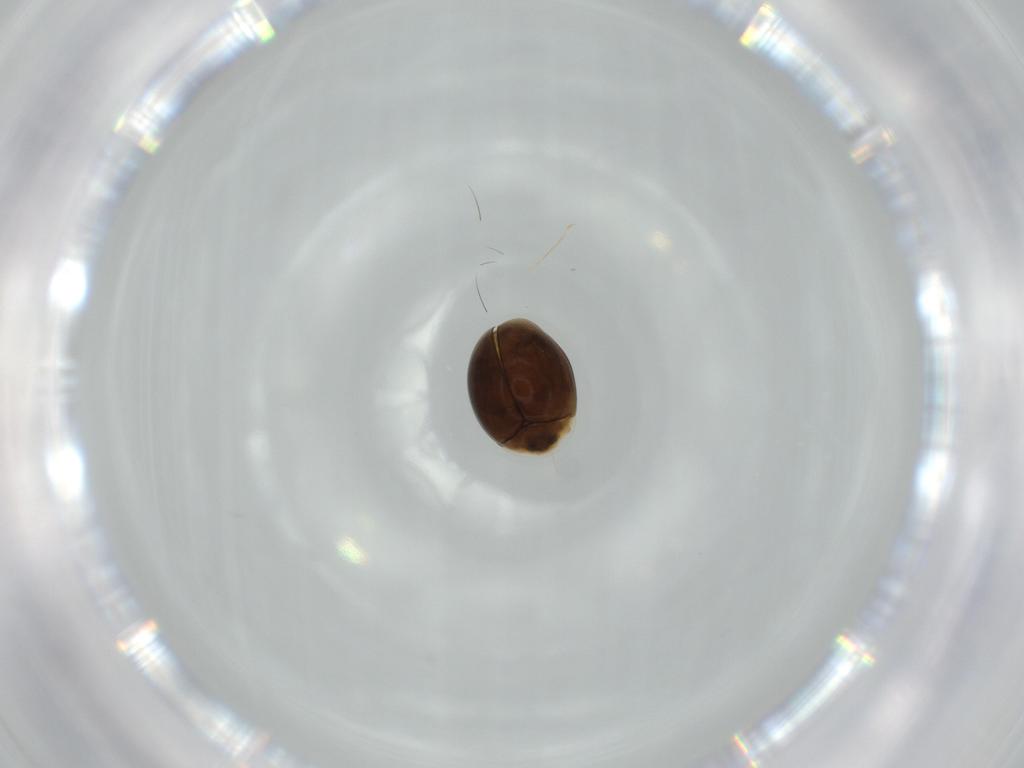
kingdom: Animalia
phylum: Arthropoda
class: Insecta
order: Coleoptera
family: Corylophidae
